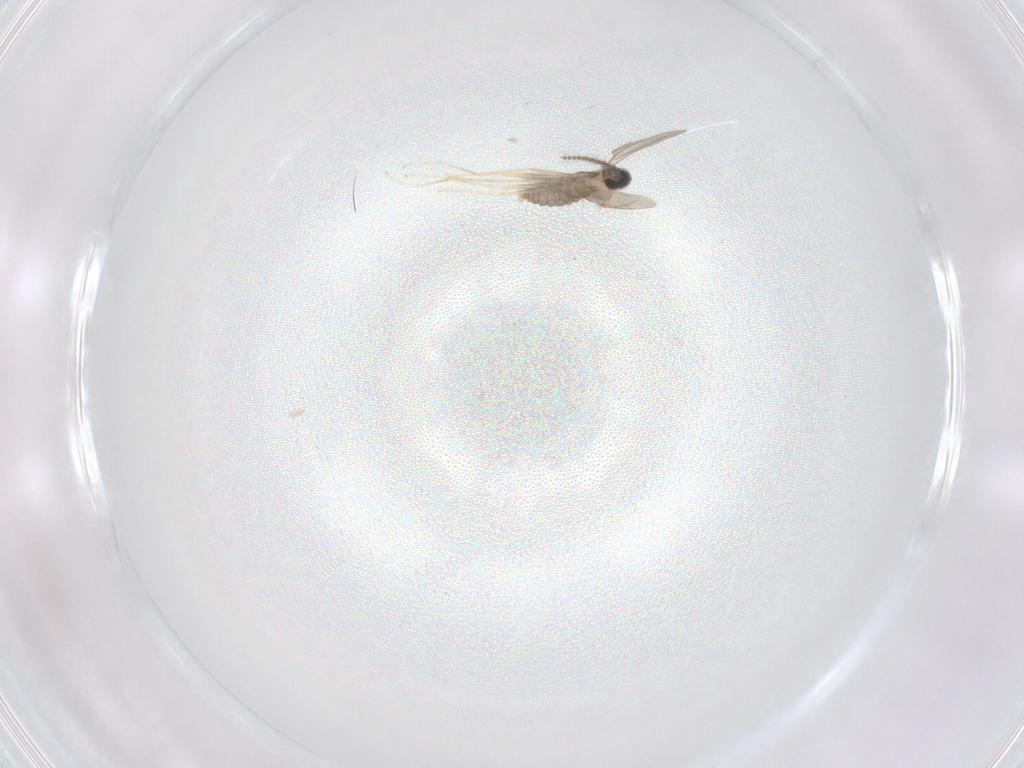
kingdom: Animalia
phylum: Arthropoda
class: Insecta
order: Diptera
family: Cecidomyiidae
